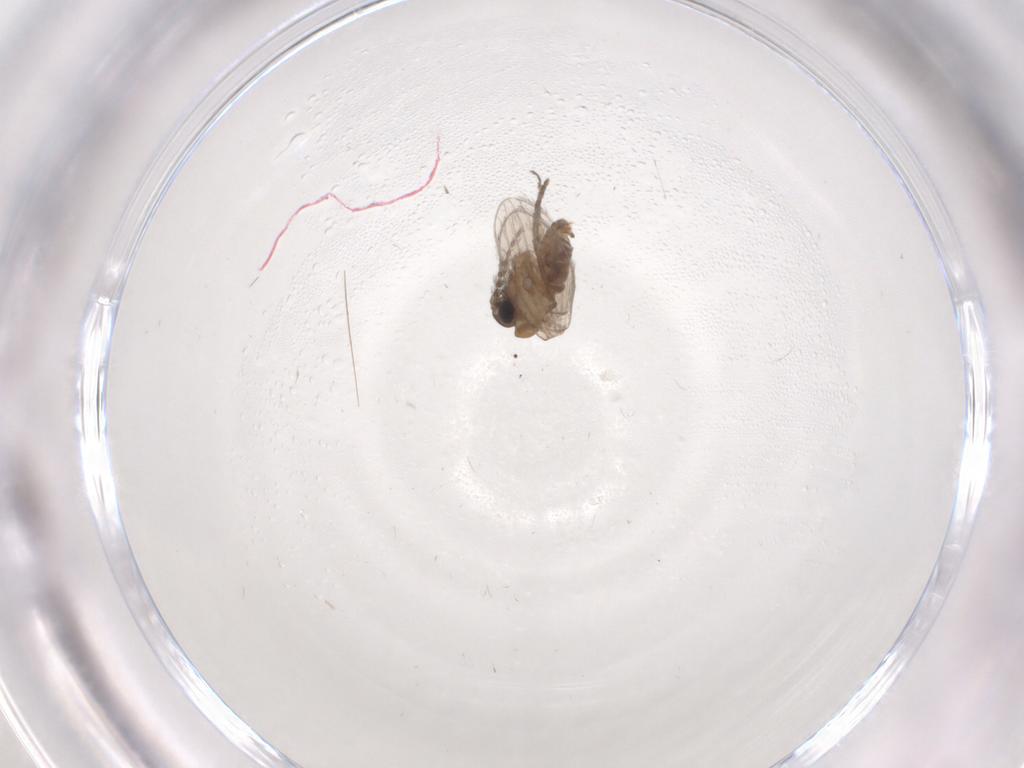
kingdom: Animalia
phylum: Arthropoda
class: Insecta
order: Diptera
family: Psychodidae
